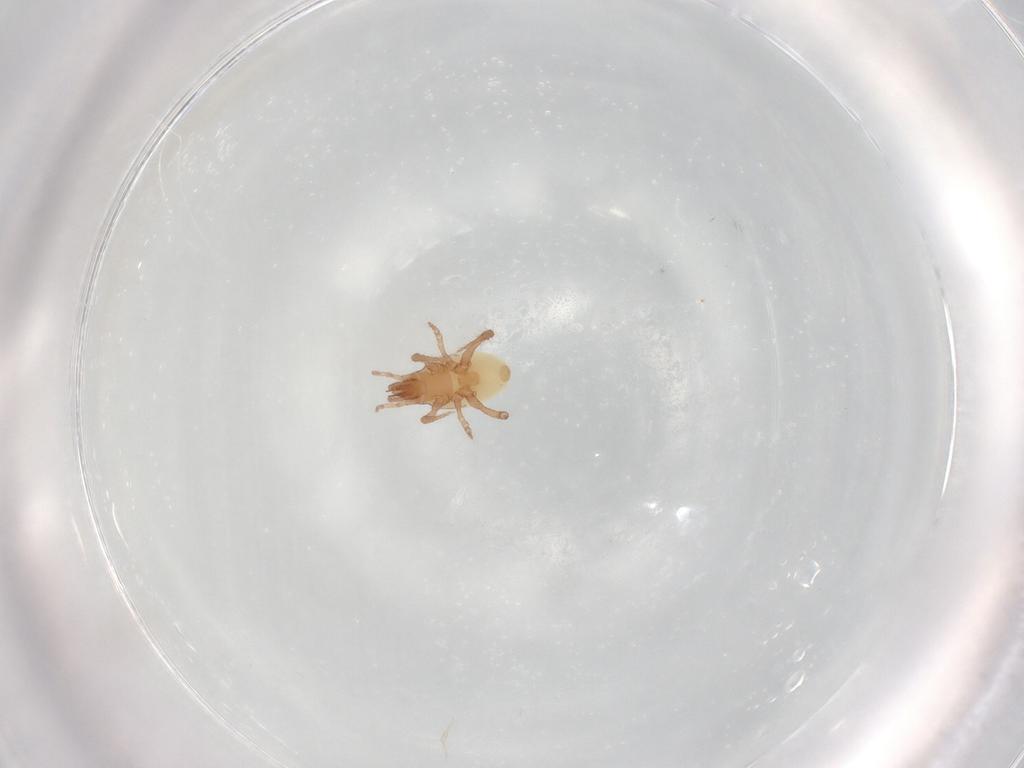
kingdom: Animalia
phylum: Arthropoda
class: Arachnida
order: Mesostigmata
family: Arctacaridae
